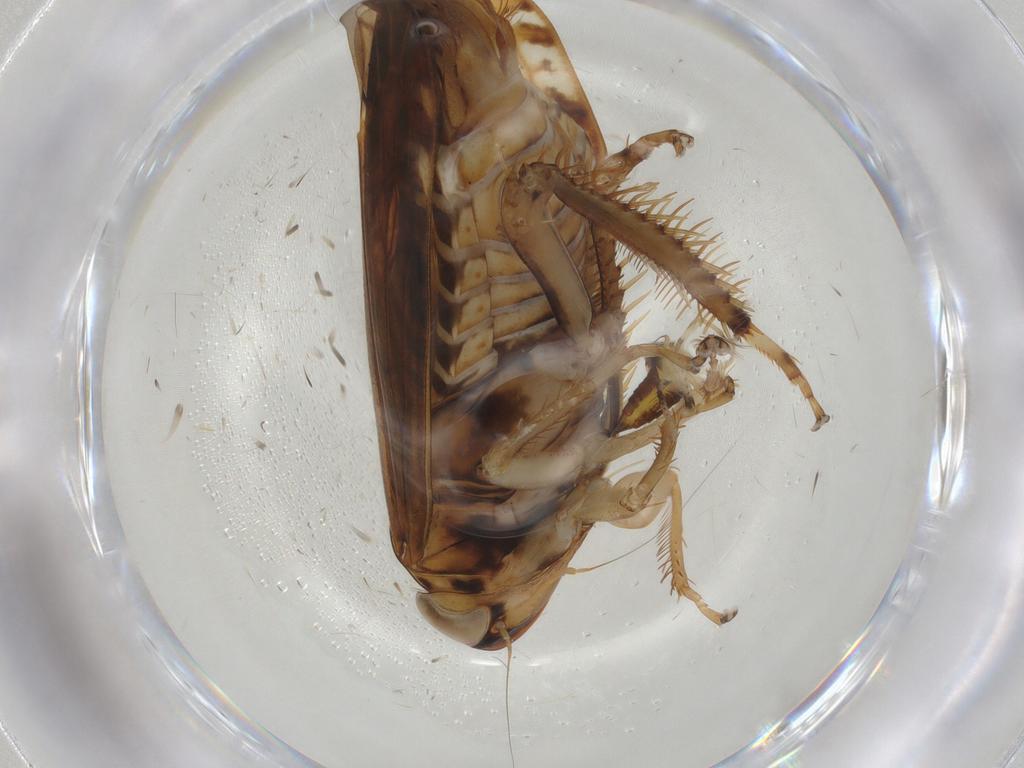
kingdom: Animalia
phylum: Arthropoda
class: Insecta
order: Hemiptera
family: Cicadellidae
